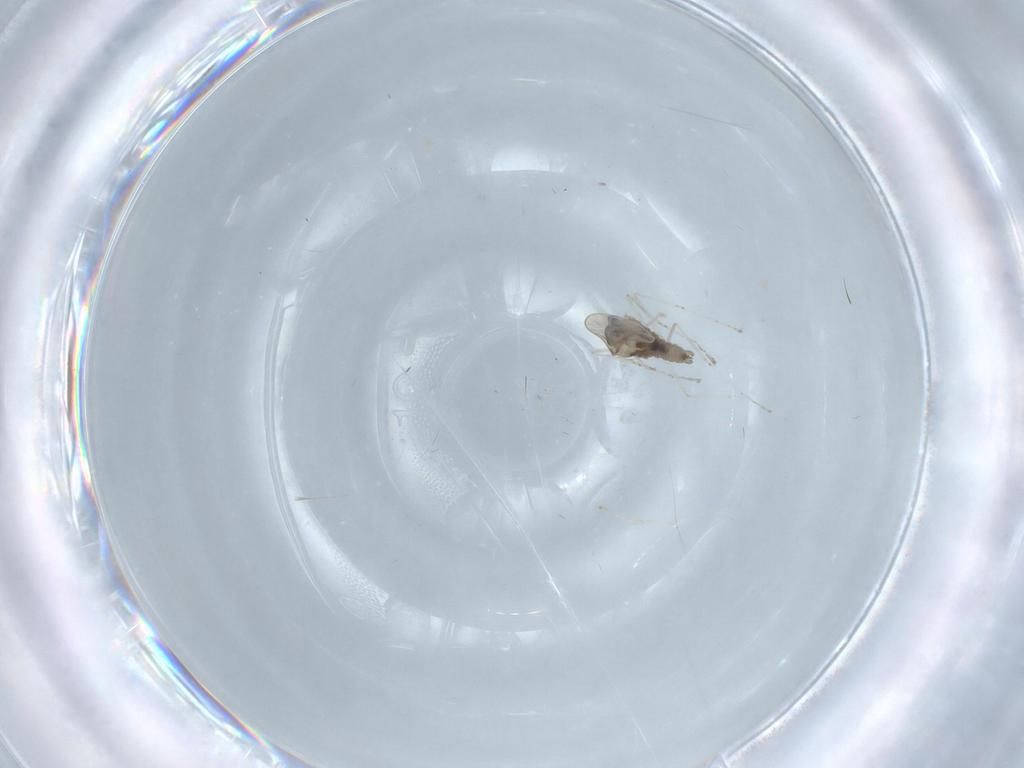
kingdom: Animalia
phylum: Arthropoda
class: Insecta
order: Diptera
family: Cecidomyiidae
